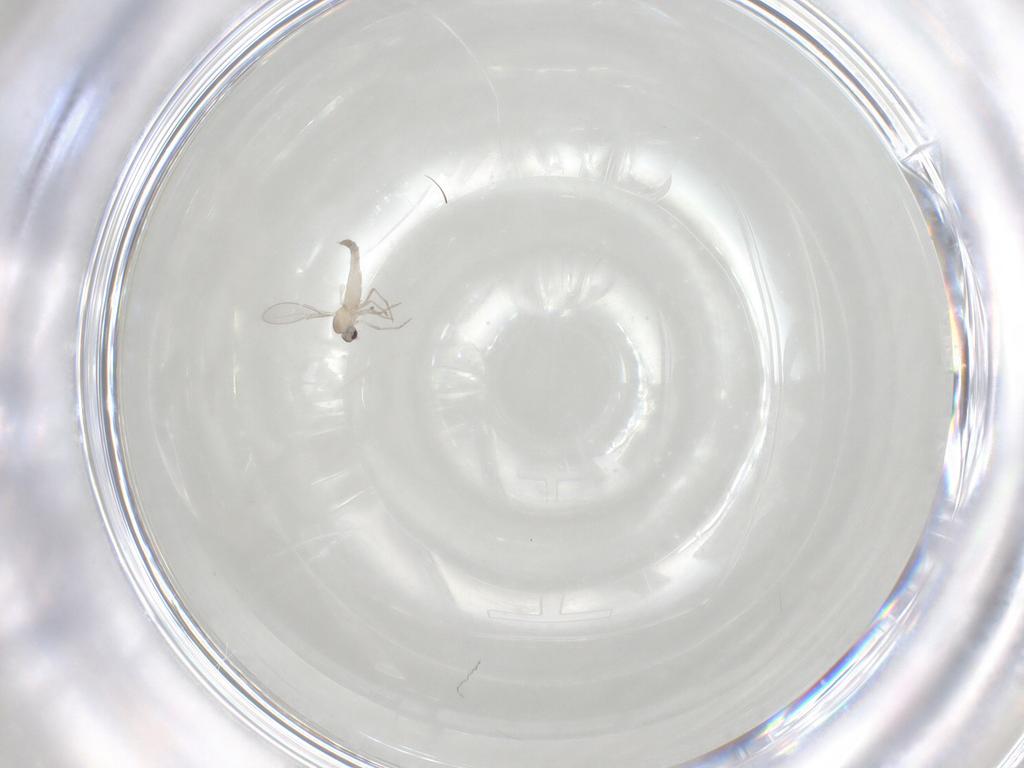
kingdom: Animalia
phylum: Arthropoda
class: Insecta
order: Diptera
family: Cecidomyiidae
